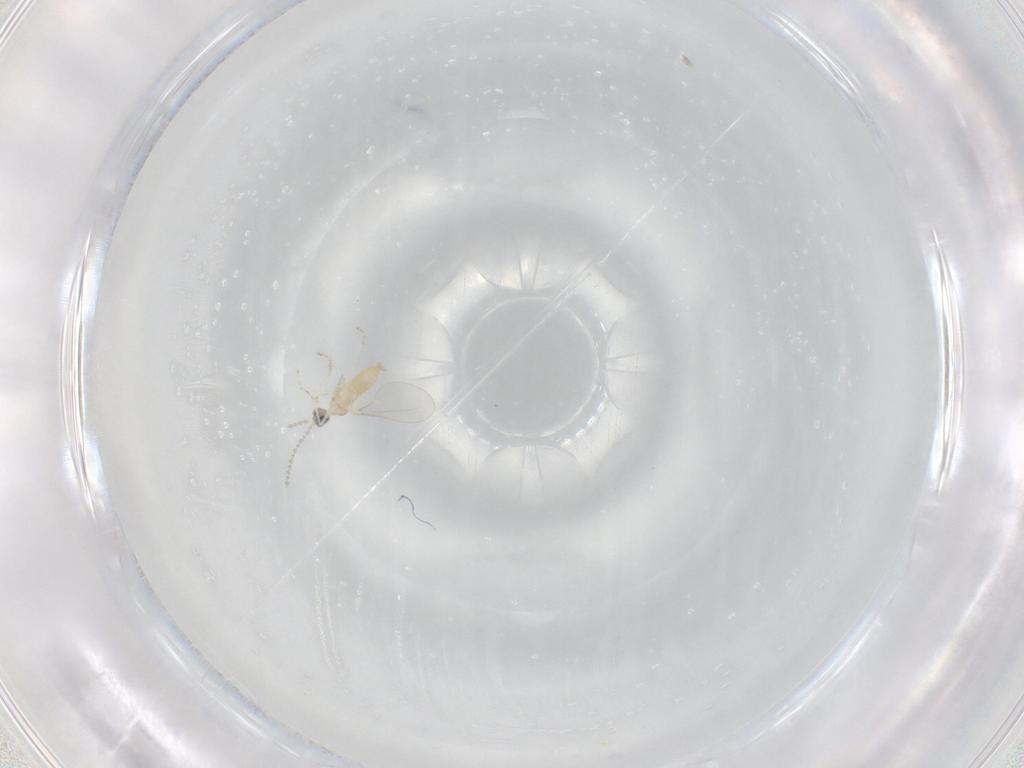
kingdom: Animalia
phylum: Arthropoda
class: Insecta
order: Diptera
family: Cecidomyiidae
